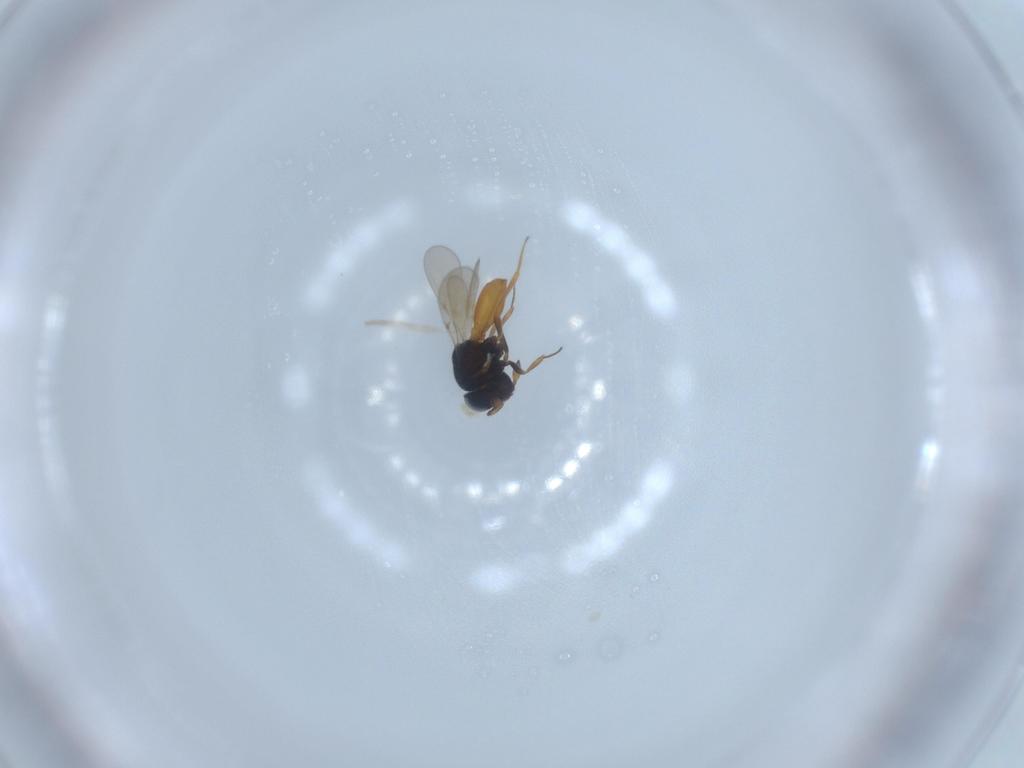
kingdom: Animalia
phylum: Arthropoda
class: Insecta
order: Hymenoptera
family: Scelionidae
